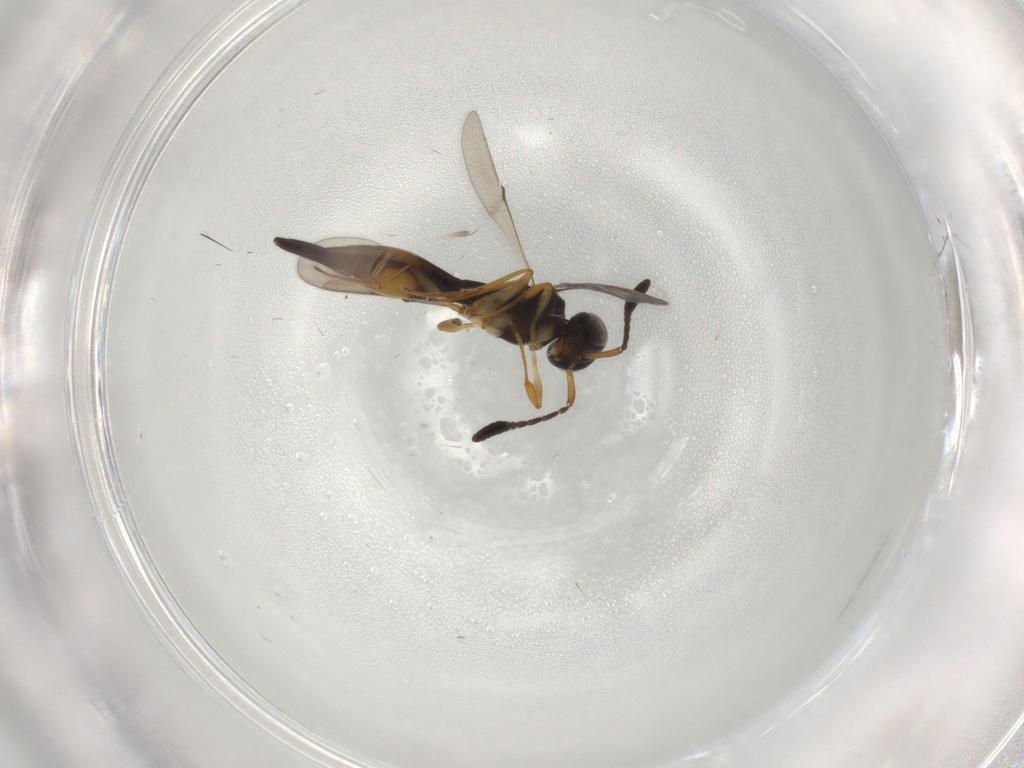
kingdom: Animalia
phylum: Arthropoda
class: Insecta
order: Hymenoptera
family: Scelionidae
